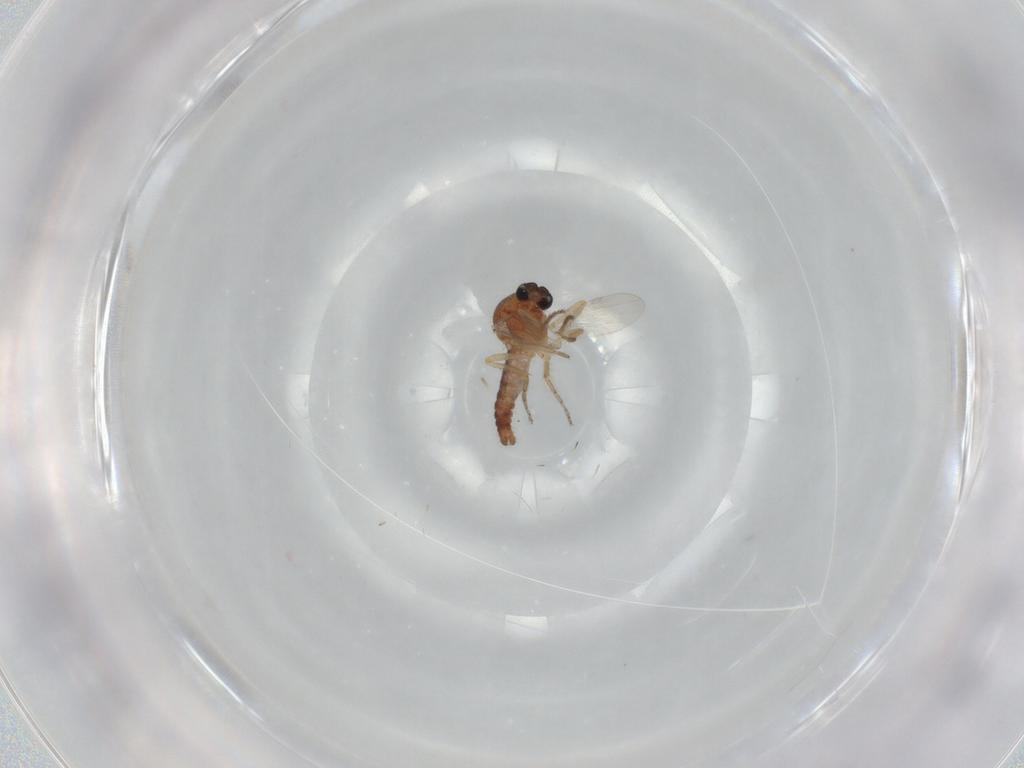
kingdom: Animalia
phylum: Arthropoda
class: Insecta
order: Diptera
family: Ceratopogonidae
